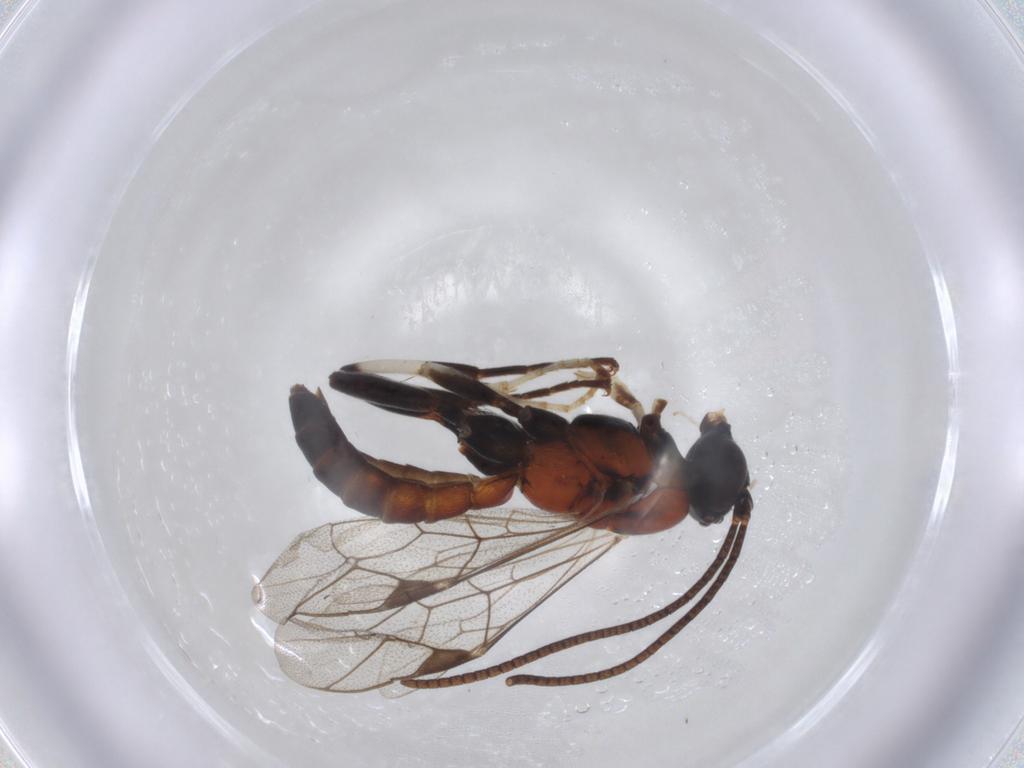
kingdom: Animalia
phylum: Arthropoda
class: Insecta
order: Hymenoptera
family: Ichneumonidae
